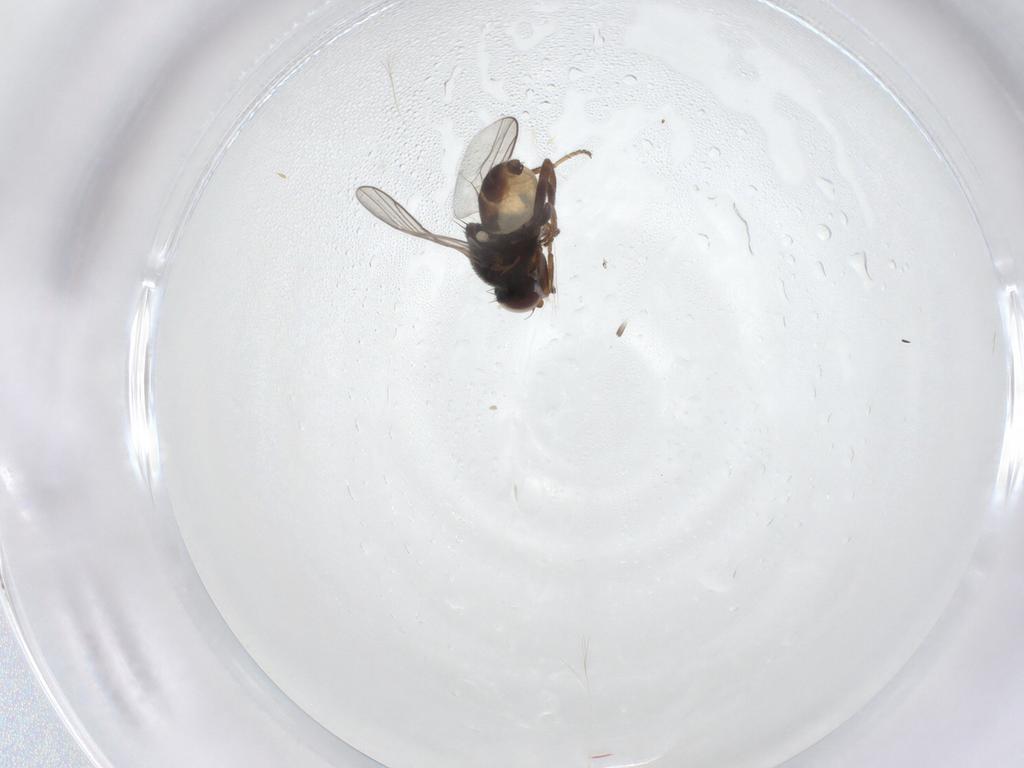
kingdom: Animalia
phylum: Arthropoda
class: Insecta
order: Diptera
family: Chloropidae
